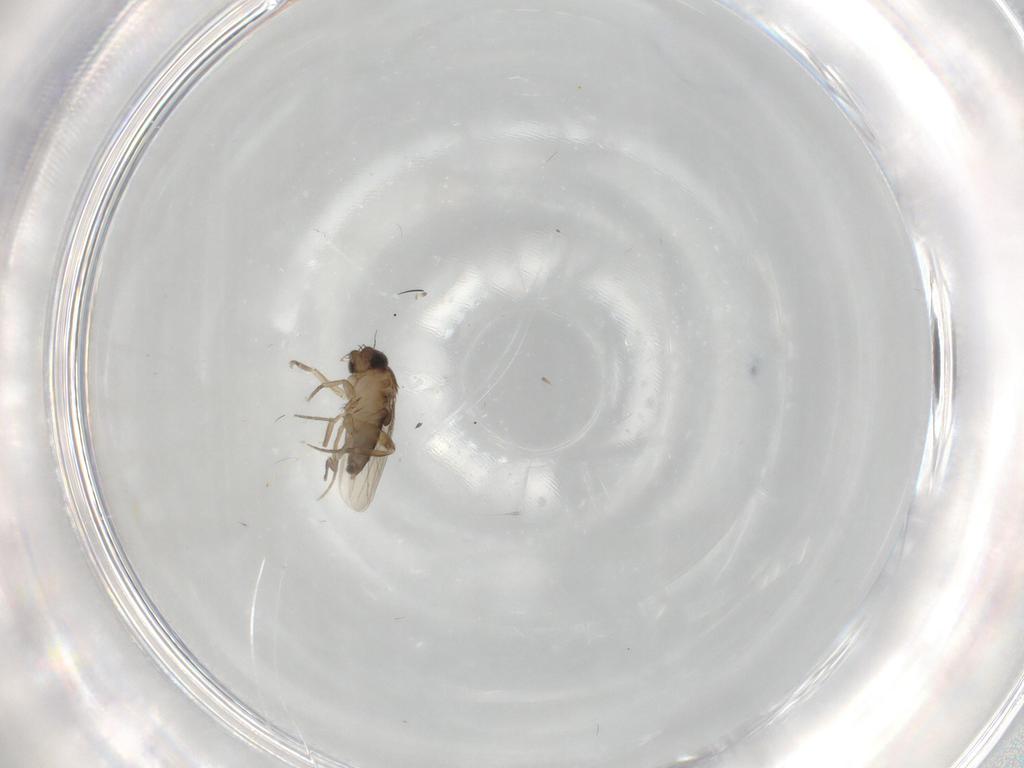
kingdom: Animalia
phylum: Arthropoda
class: Insecta
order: Diptera
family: Phoridae
